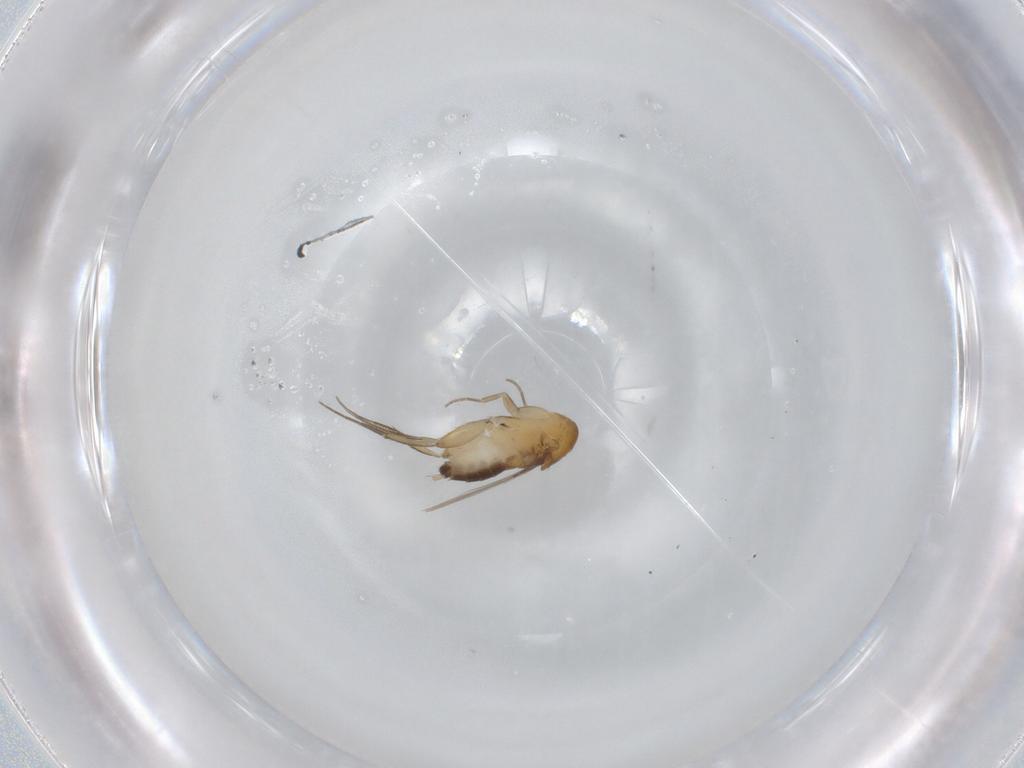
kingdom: Animalia
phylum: Arthropoda
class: Insecta
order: Diptera
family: Phoridae
